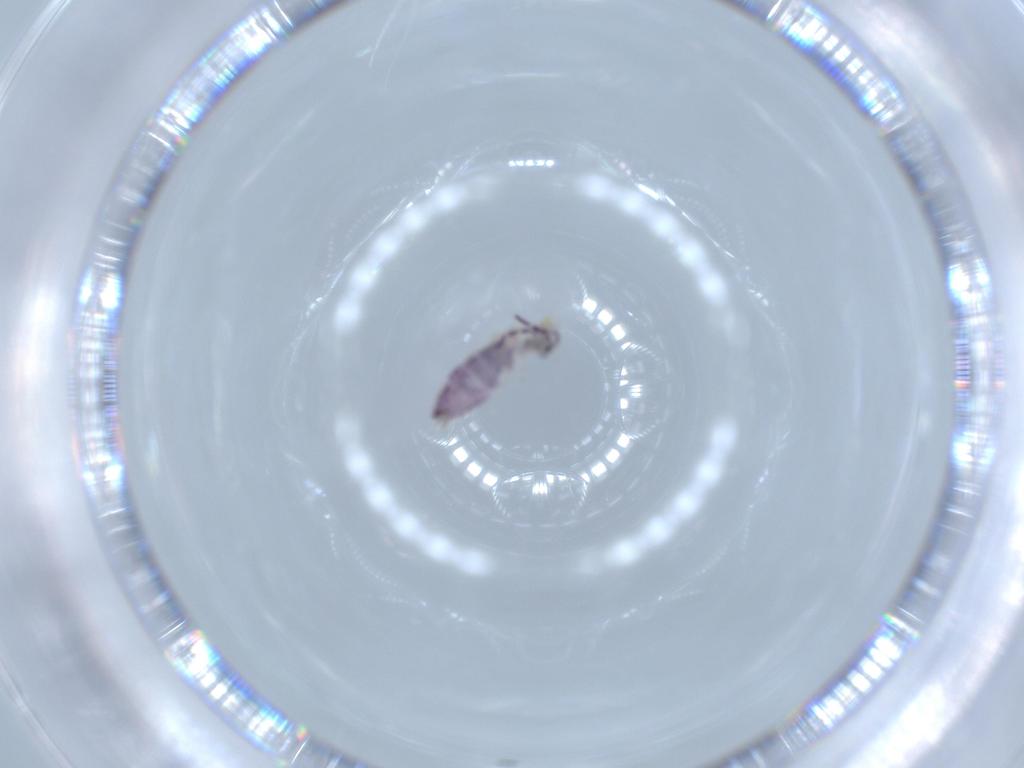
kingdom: Animalia
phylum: Arthropoda
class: Collembola
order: Entomobryomorpha
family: Isotomidae
